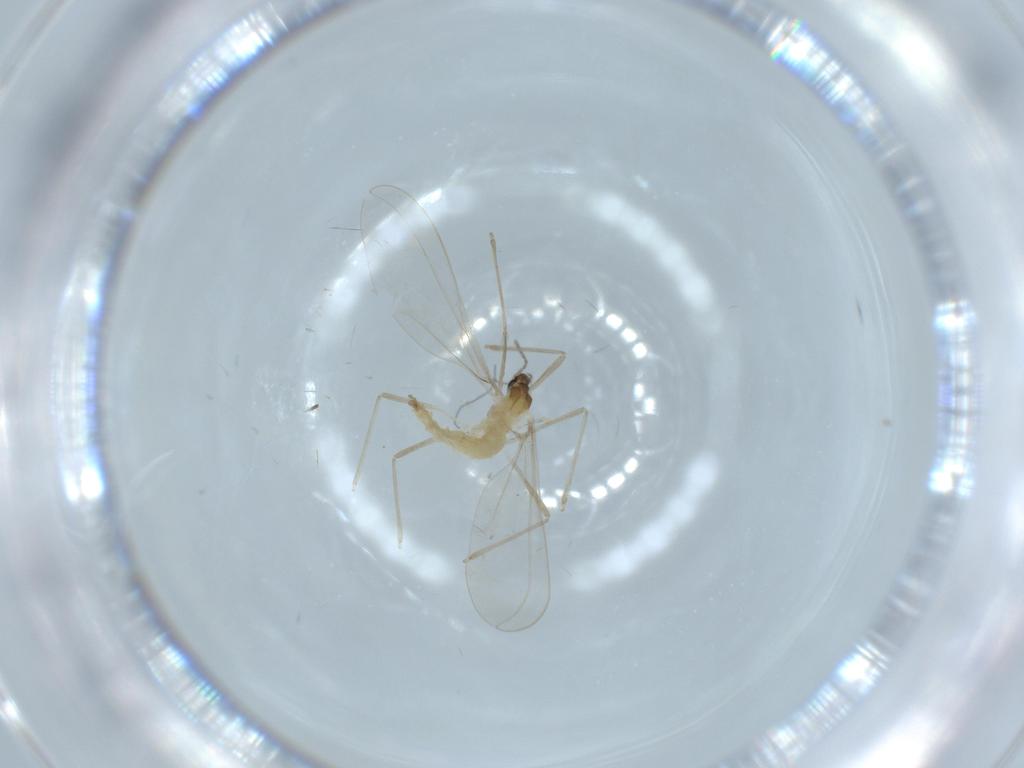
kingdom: Animalia
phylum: Arthropoda
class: Insecta
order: Diptera
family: Cecidomyiidae
